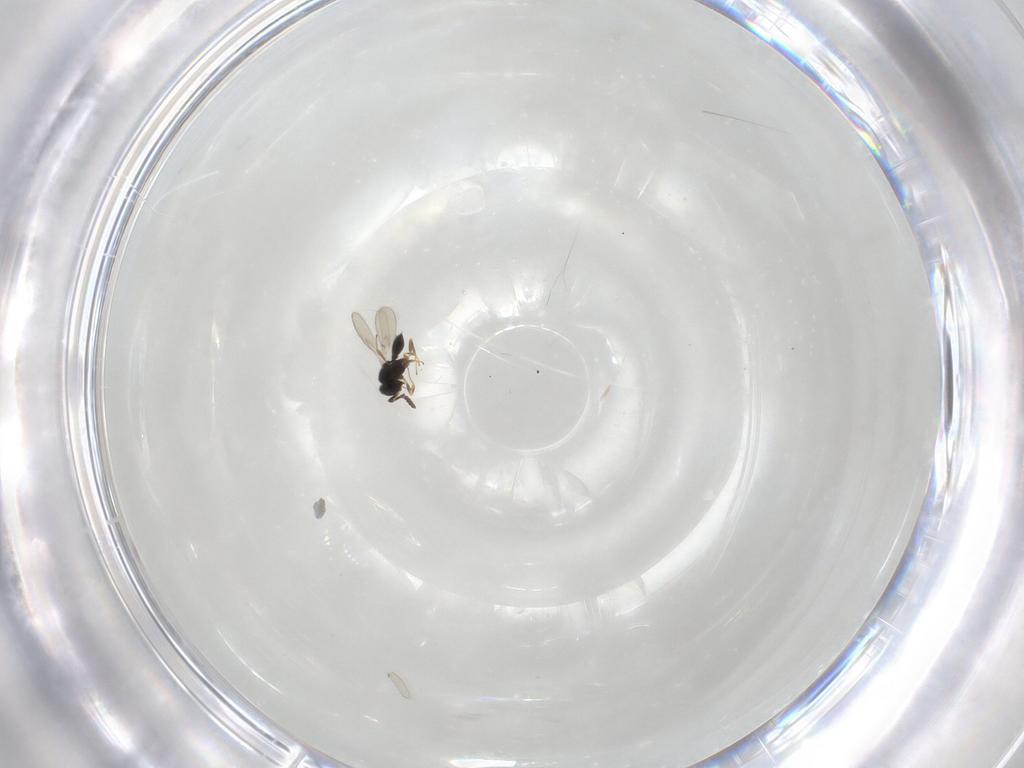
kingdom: Animalia
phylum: Arthropoda
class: Insecta
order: Hymenoptera
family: Scelionidae
